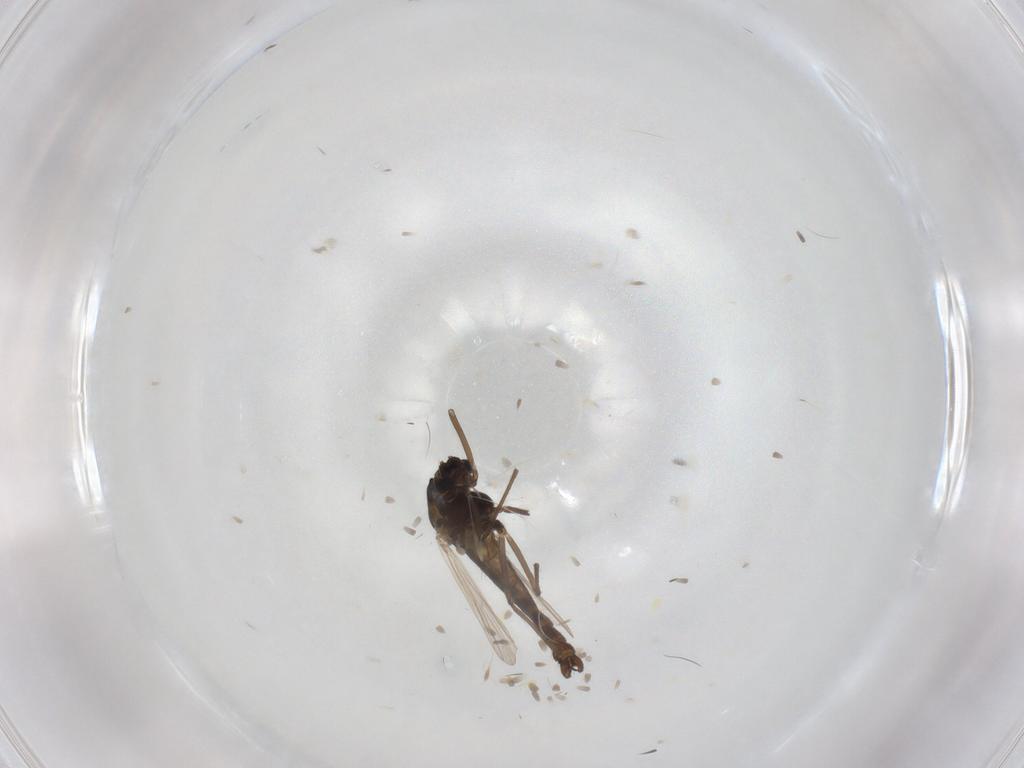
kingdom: Animalia
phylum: Arthropoda
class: Insecta
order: Diptera
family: Chironomidae
